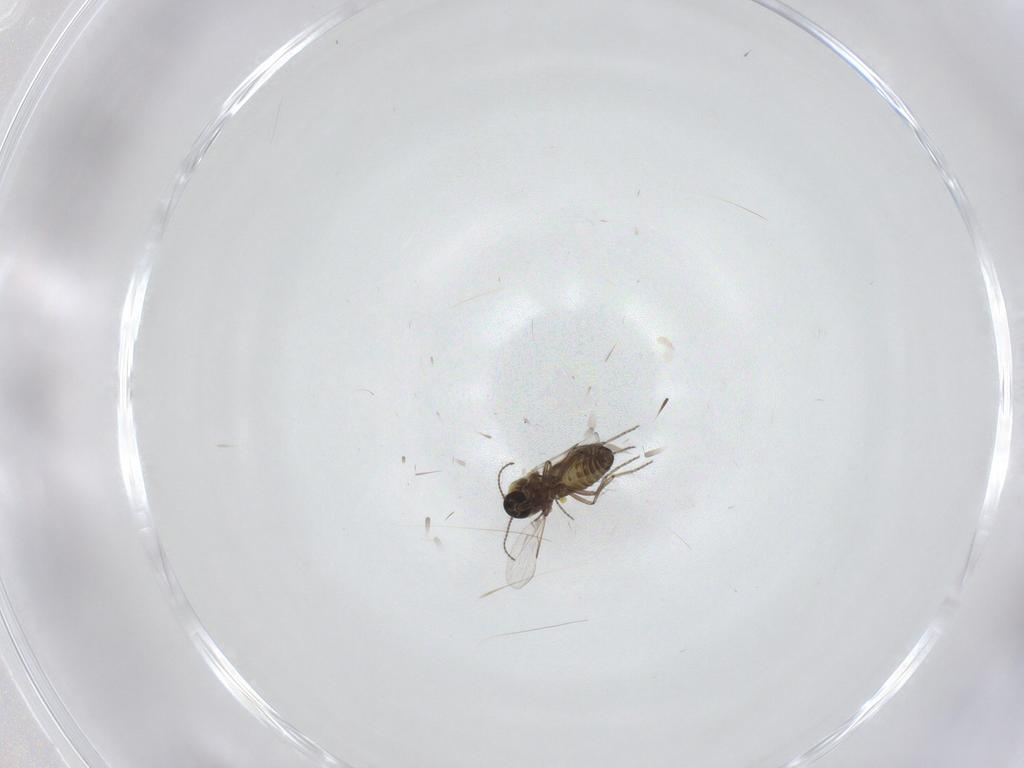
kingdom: Animalia
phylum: Arthropoda
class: Insecta
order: Diptera
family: Ceratopogonidae
